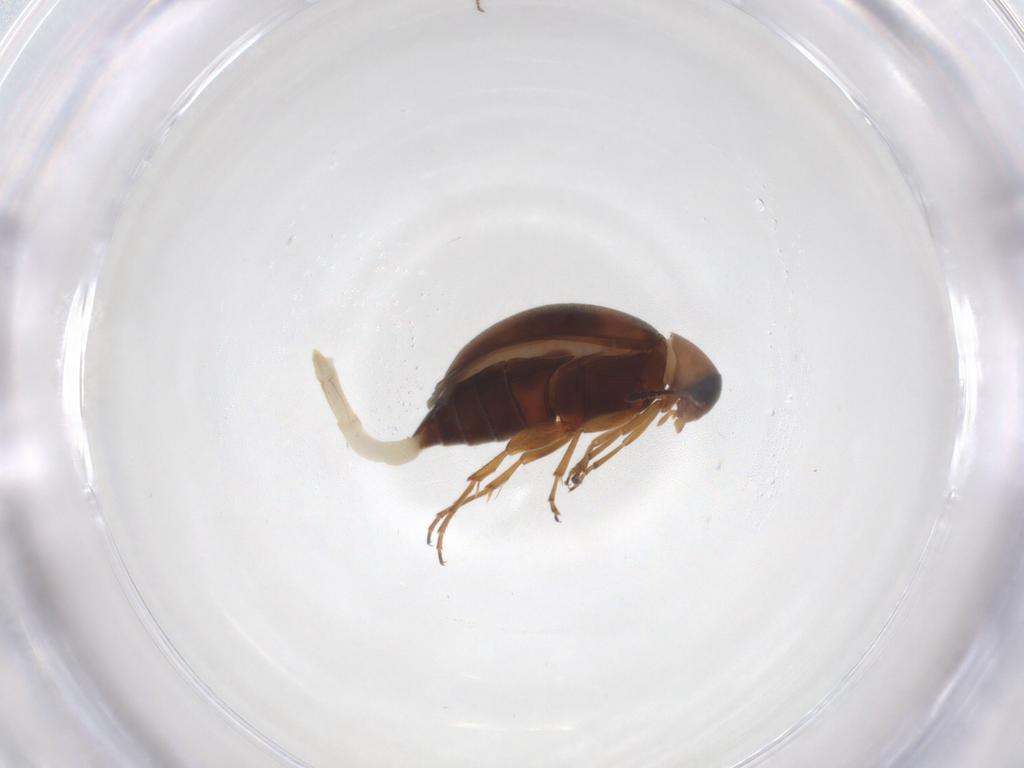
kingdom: Animalia
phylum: Arthropoda
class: Insecta
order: Coleoptera
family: Scraptiidae
